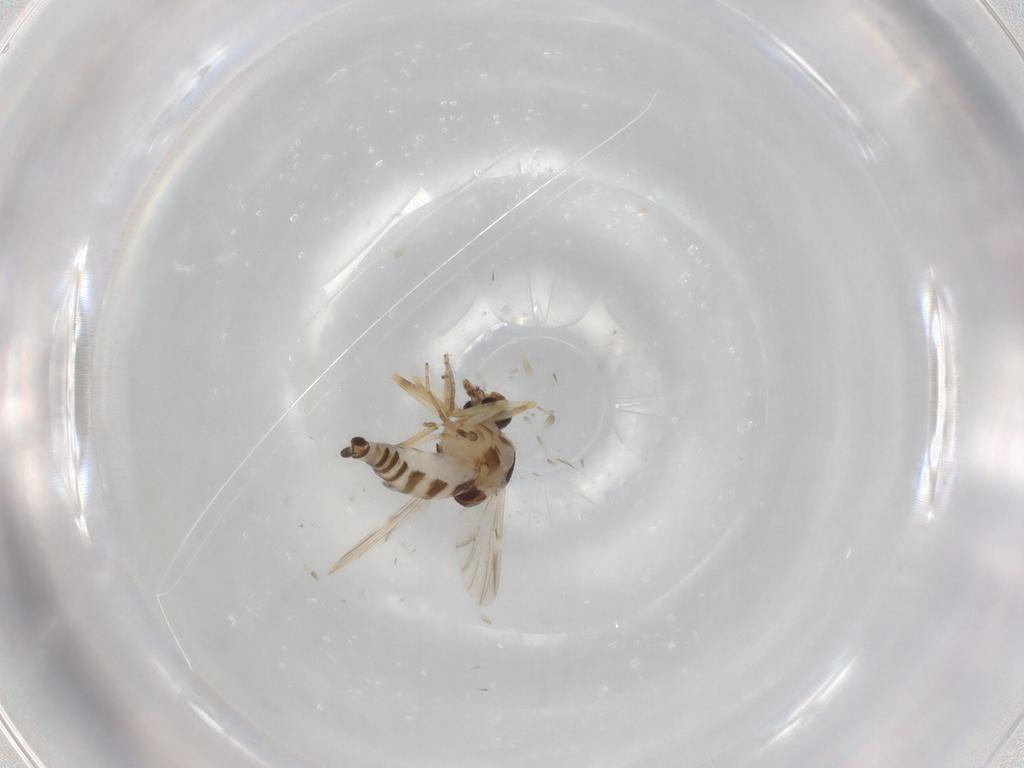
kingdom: Animalia
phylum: Arthropoda
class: Insecta
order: Diptera
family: Ceratopogonidae
